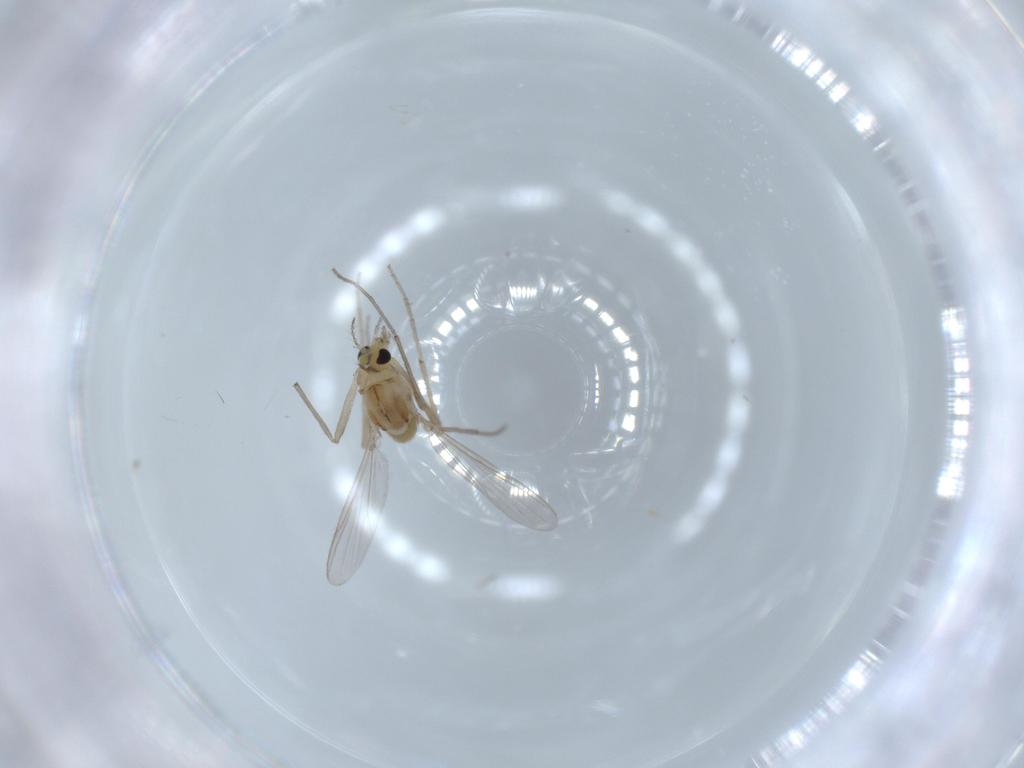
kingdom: Animalia
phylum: Arthropoda
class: Insecta
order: Diptera
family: Chironomidae
